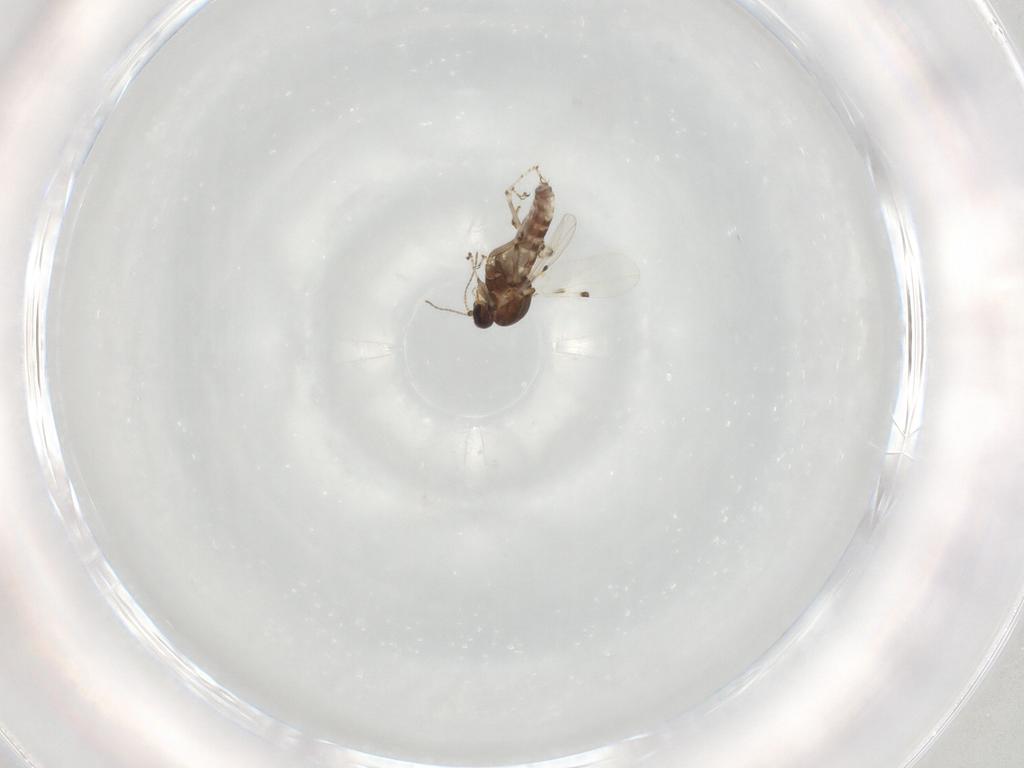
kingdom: Animalia
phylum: Arthropoda
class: Insecta
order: Diptera
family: Ceratopogonidae
